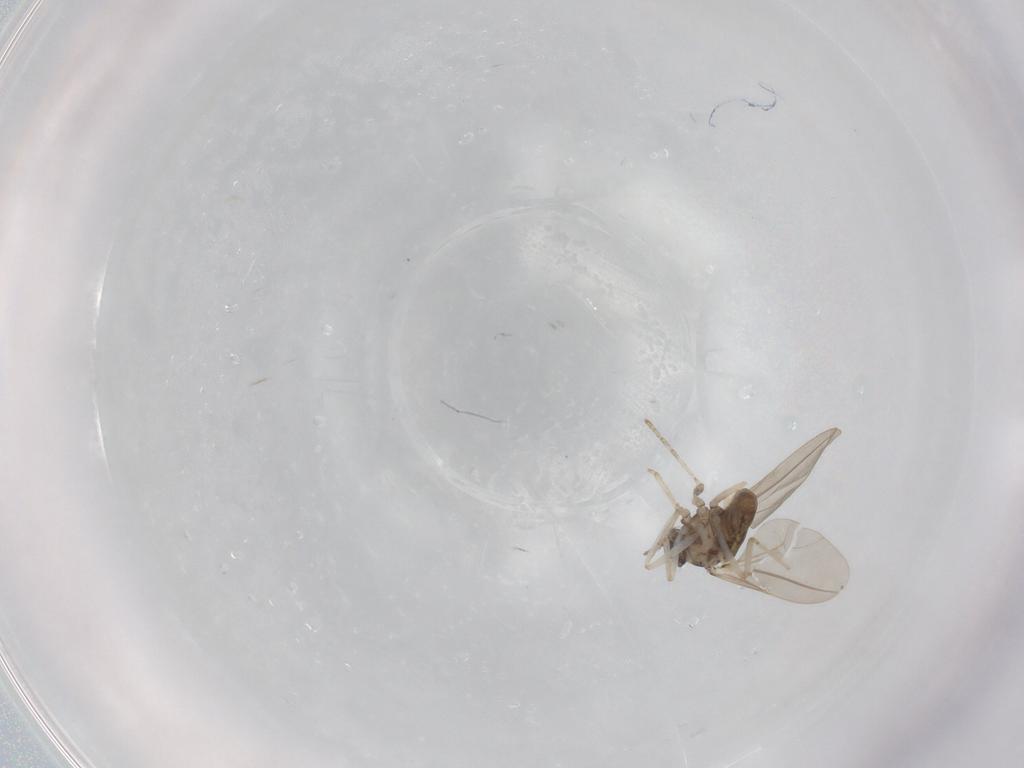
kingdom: Animalia
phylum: Arthropoda
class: Insecta
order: Diptera
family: Cecidomyiidae
